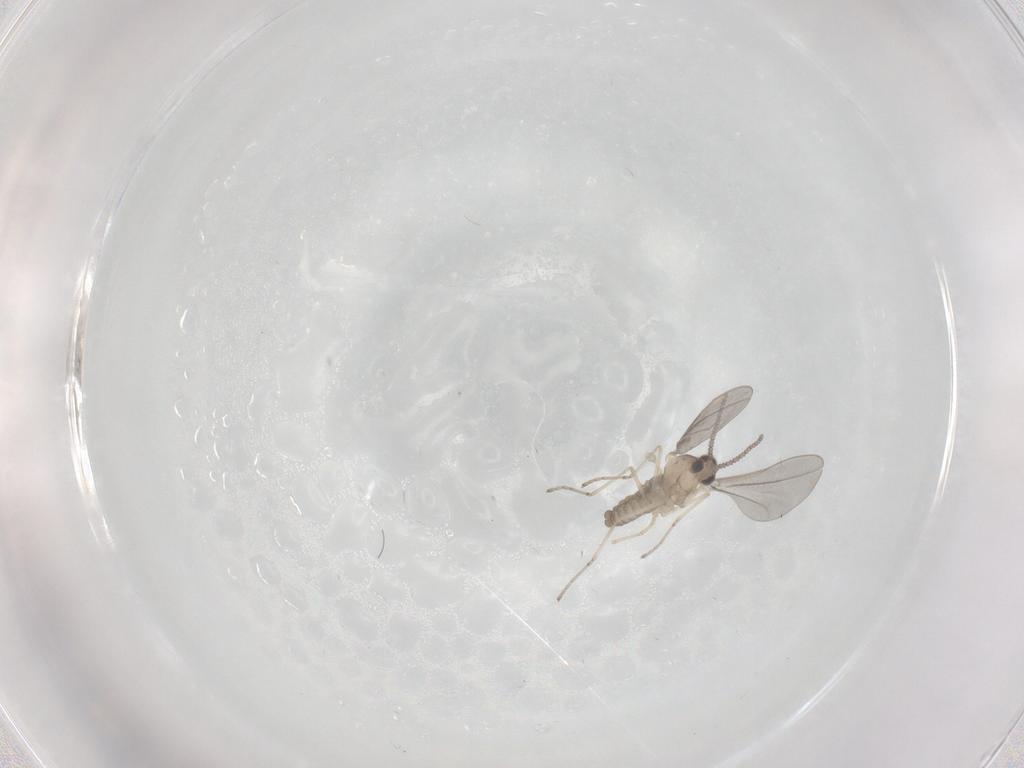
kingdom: Animalia
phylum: Arthropoda
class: Insecta
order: Diptera
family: Cecidomyiidae
